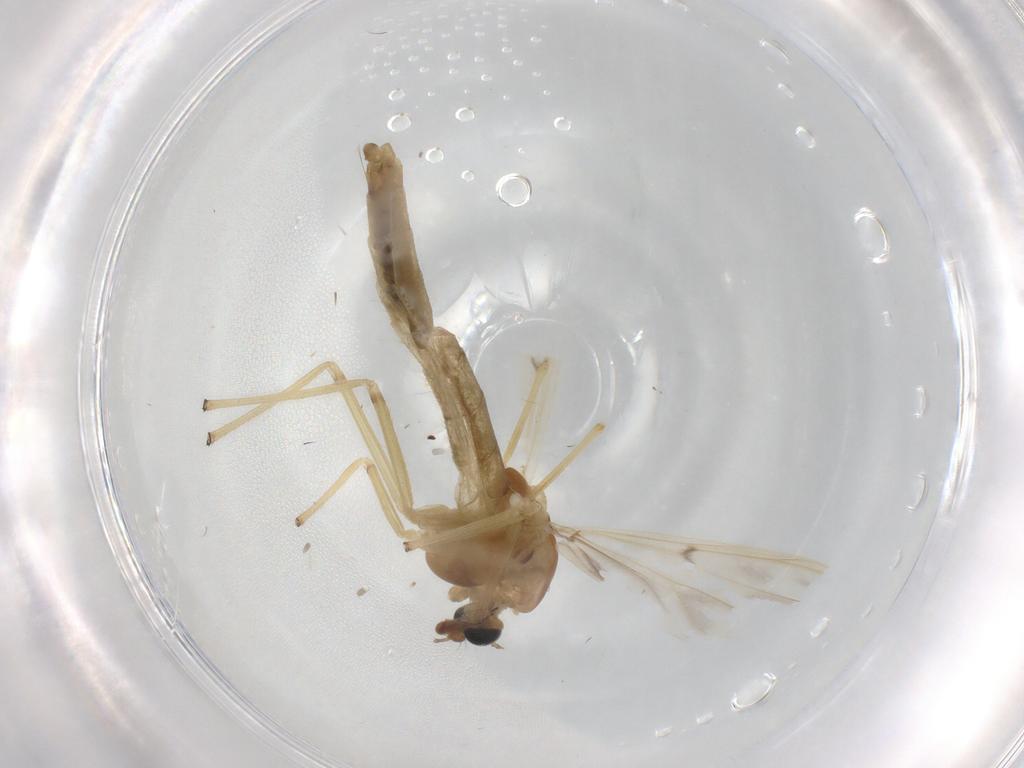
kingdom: Animalia
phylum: Arthropoda
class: Insecta
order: Diptera
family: Chironomidae
